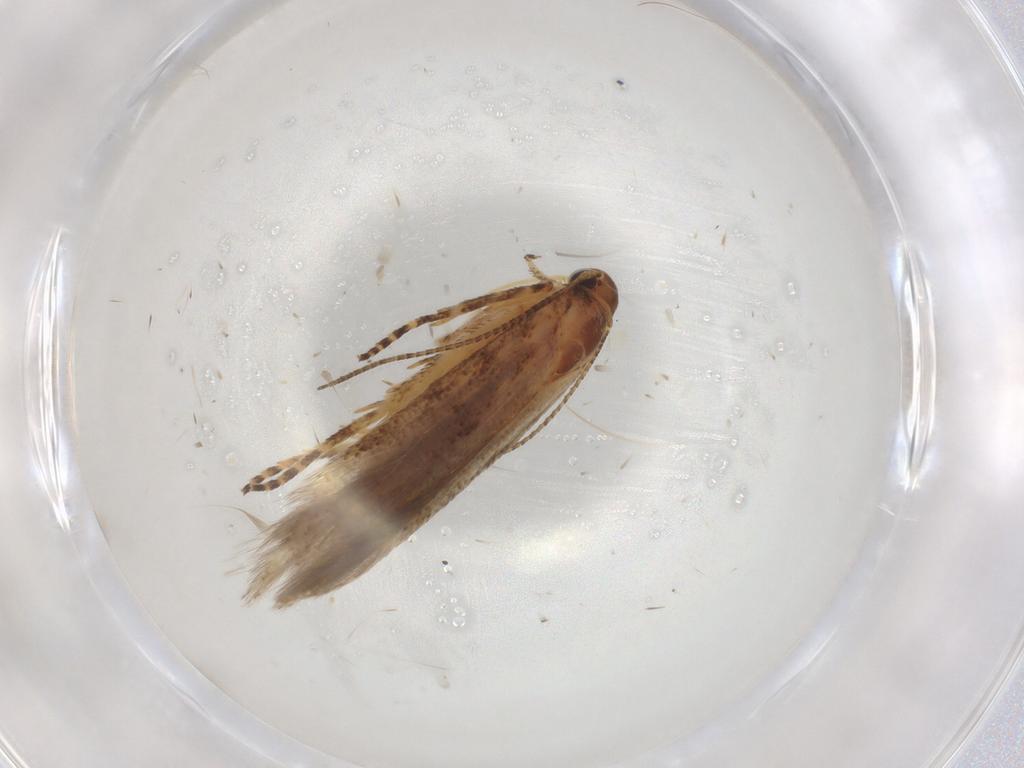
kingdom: Animalia
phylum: Arthropoda
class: Insecta
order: Lepidoptera
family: Gelechiidae
